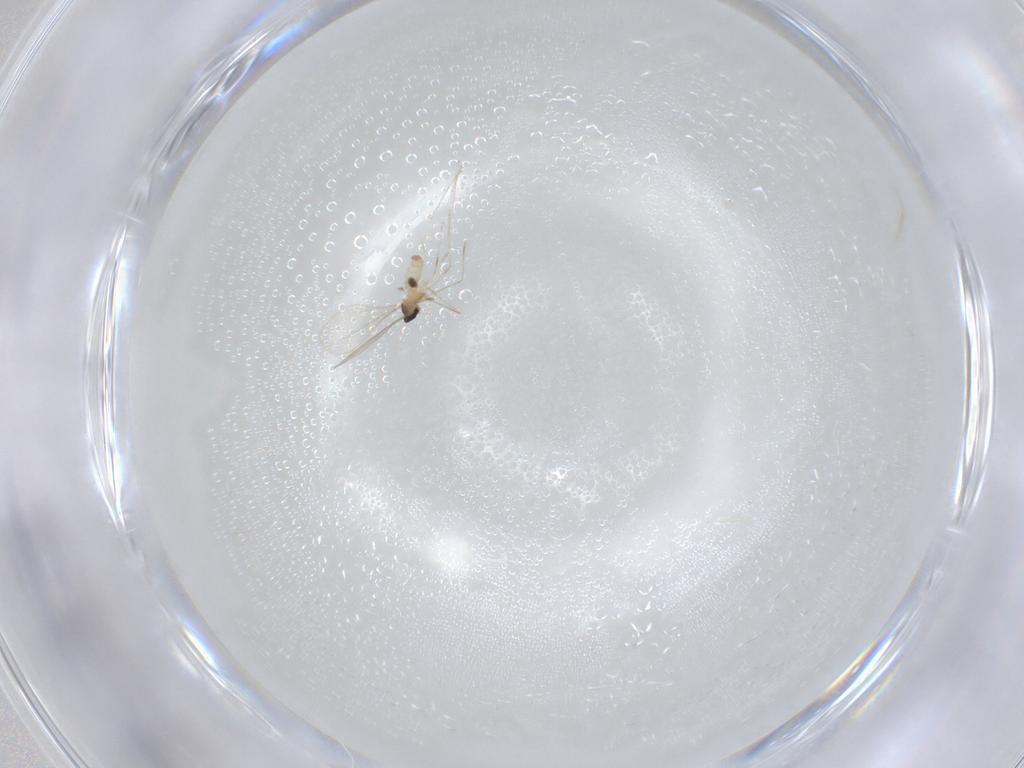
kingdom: Animalia
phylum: Arthropoda
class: Insecta
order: Diptera
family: Cecidomyiidae
